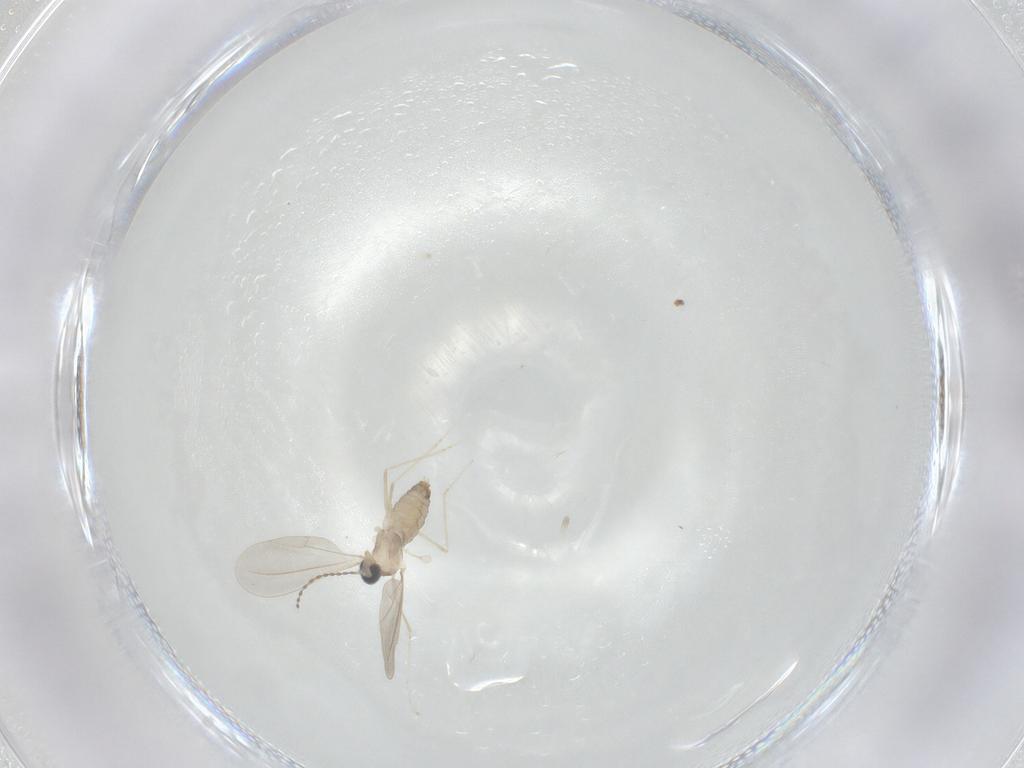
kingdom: Animalia
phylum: Arthropoda
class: Insecta
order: Diptera
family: Cecidomyiidae
